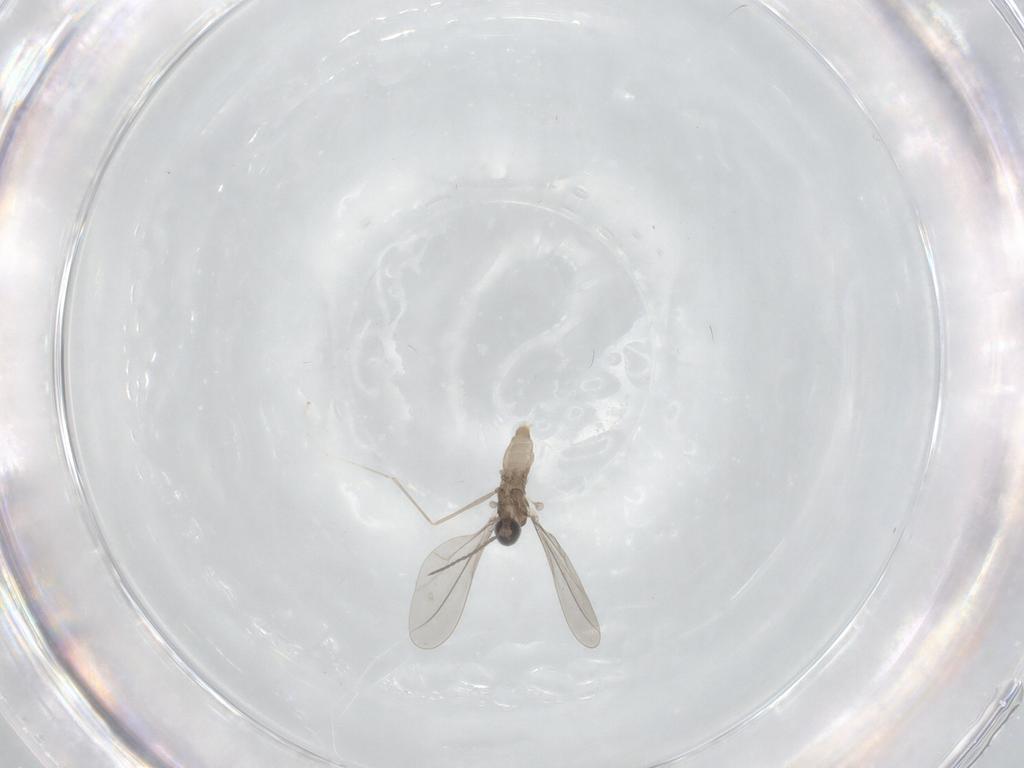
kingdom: Animalia
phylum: Arthropoda
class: Insecta
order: Diptera
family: Cecidomyiidae
